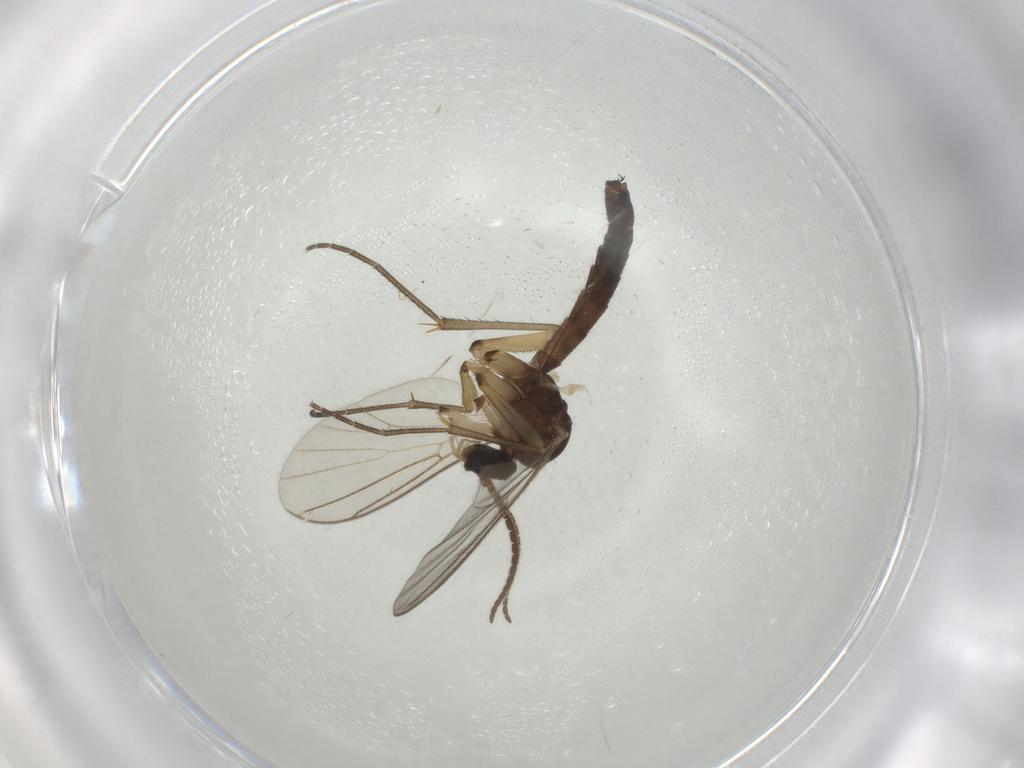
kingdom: Animalia
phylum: Arthropoda
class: Insecta
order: Diptera
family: Mycetophilidae
